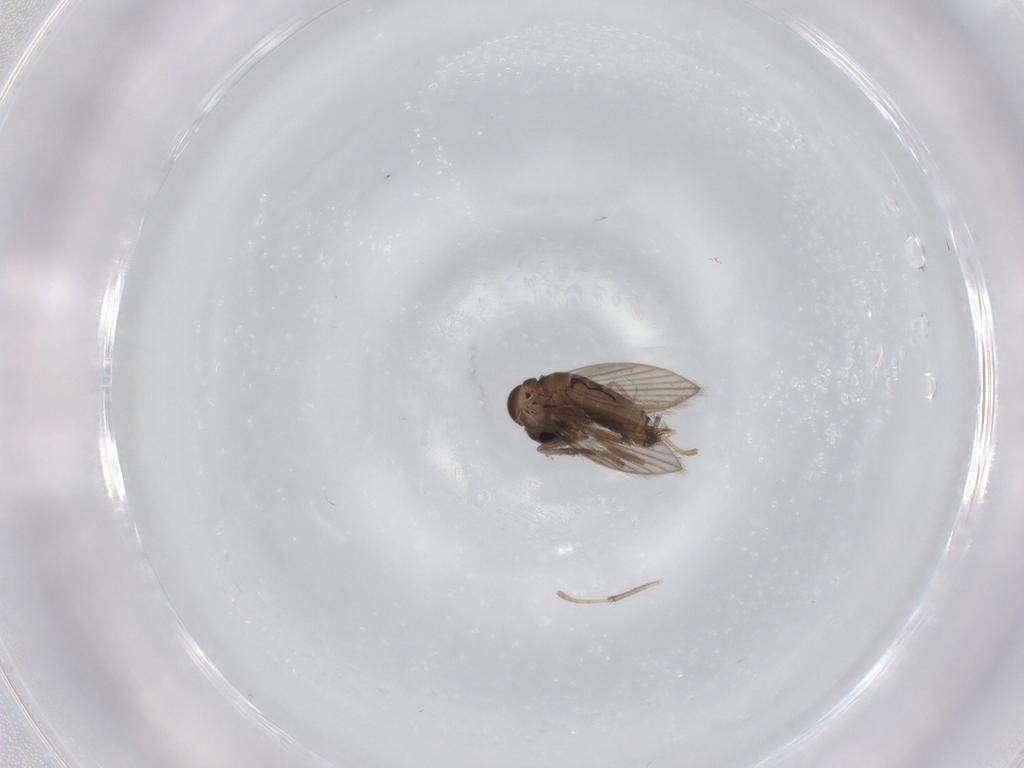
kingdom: Animalia
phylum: Arthropoda
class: Insecta
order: Diptera
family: Psychodidae
